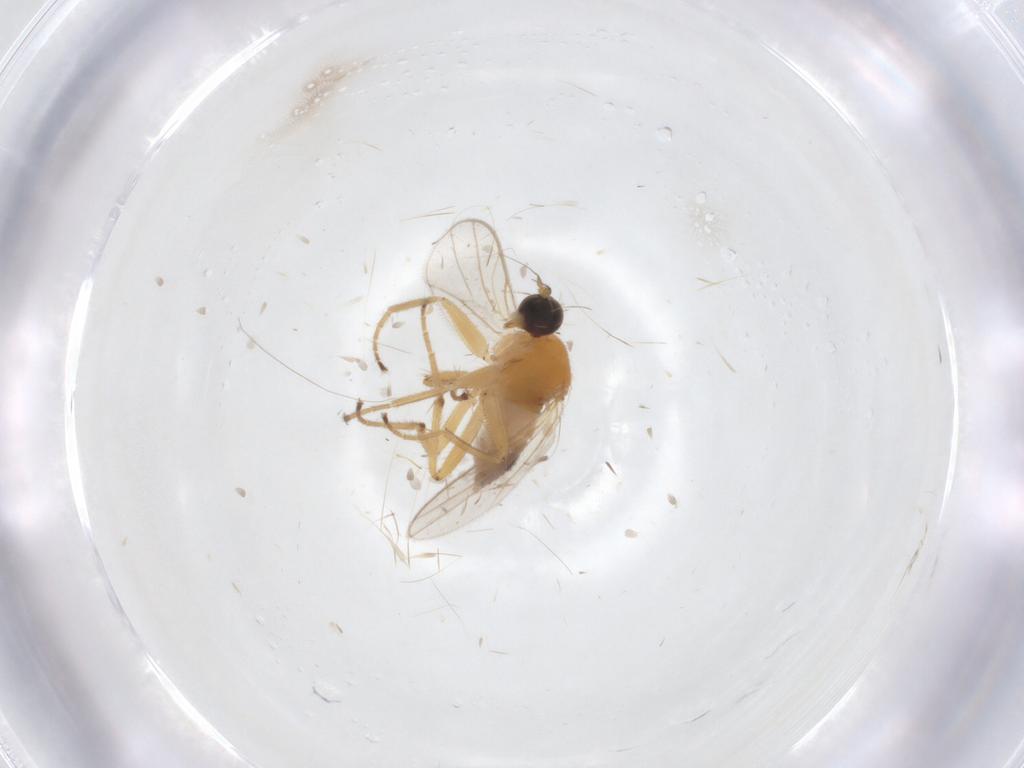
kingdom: Animalia
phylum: Arthropoda
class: Insecta
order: Diptera
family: Hybotidae
